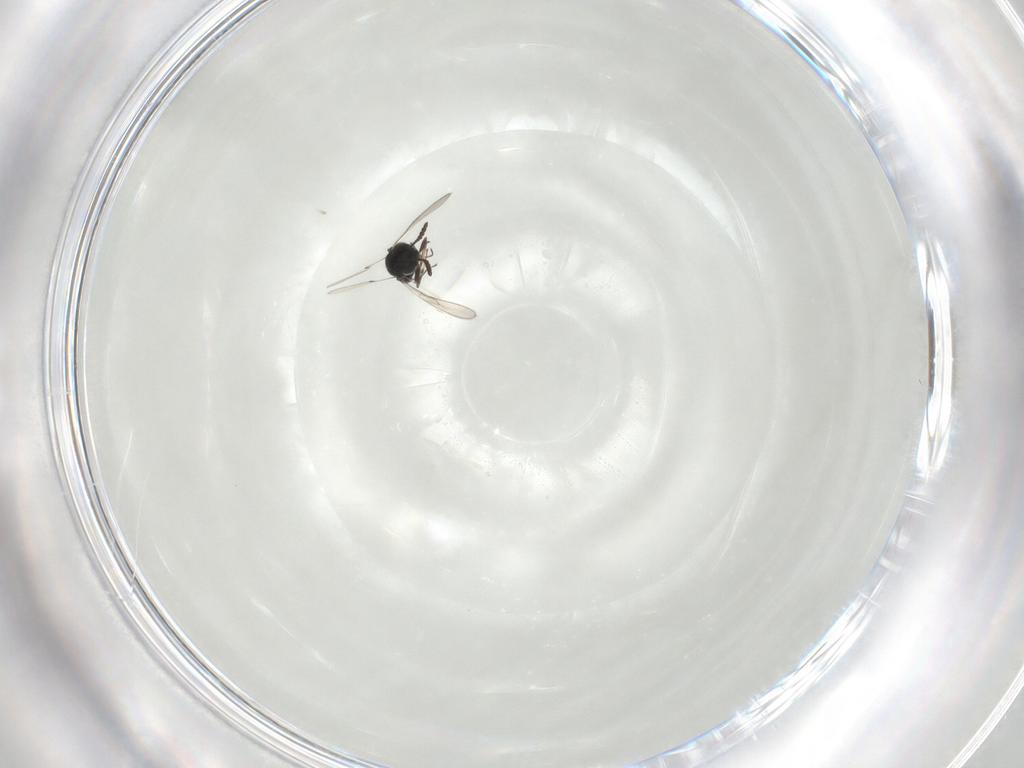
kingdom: Animalia
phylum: Arthropoda
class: Insecta
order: Hymenoptera
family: Scelionidae
